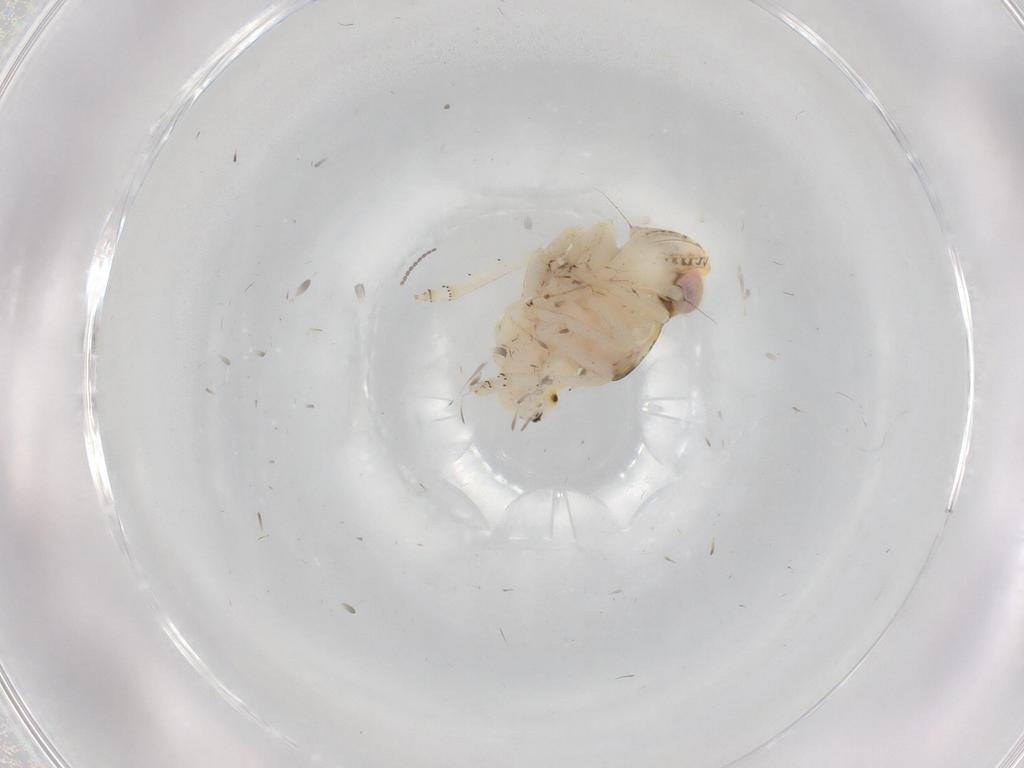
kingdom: Animalia
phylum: Arthropoda
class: Insecta
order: Hemiptera
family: Nogodinidae
